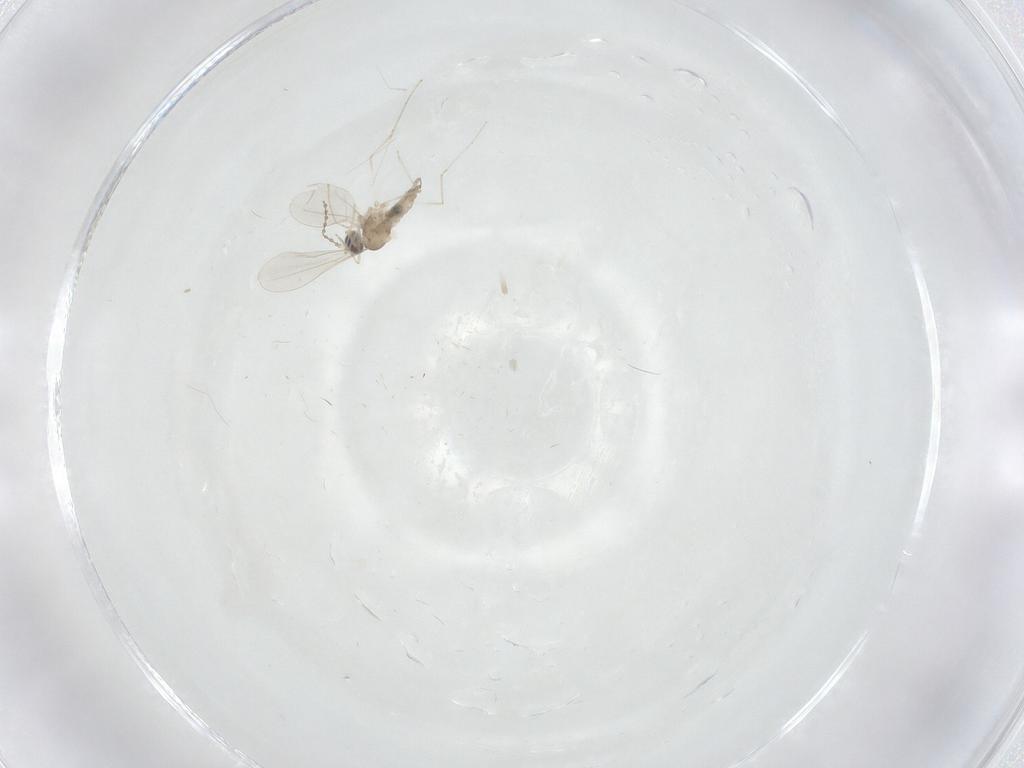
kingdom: Animalia
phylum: Arthropoda
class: Insecta
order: Diptera
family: Cecidomyiidae
